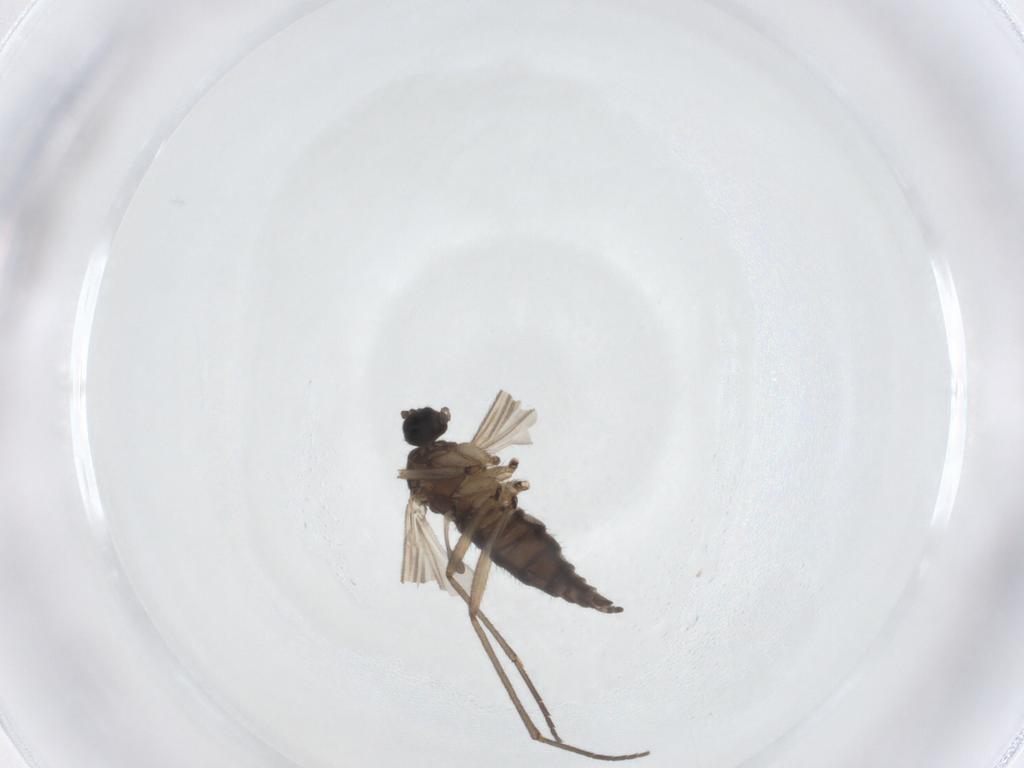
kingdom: Animalia
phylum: Arthropoda
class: Insecta
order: Diptera
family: Sciaridae
